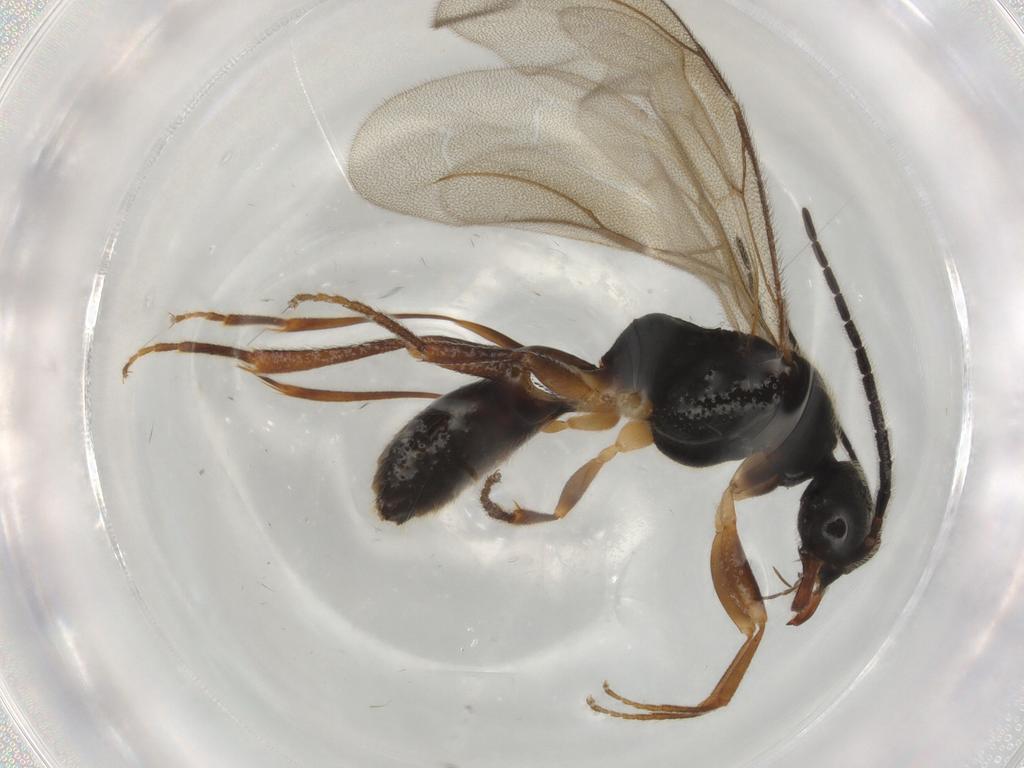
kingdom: Animalia
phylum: Arthropoda
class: Insecta
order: Hymenoptera
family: Bethylidae
